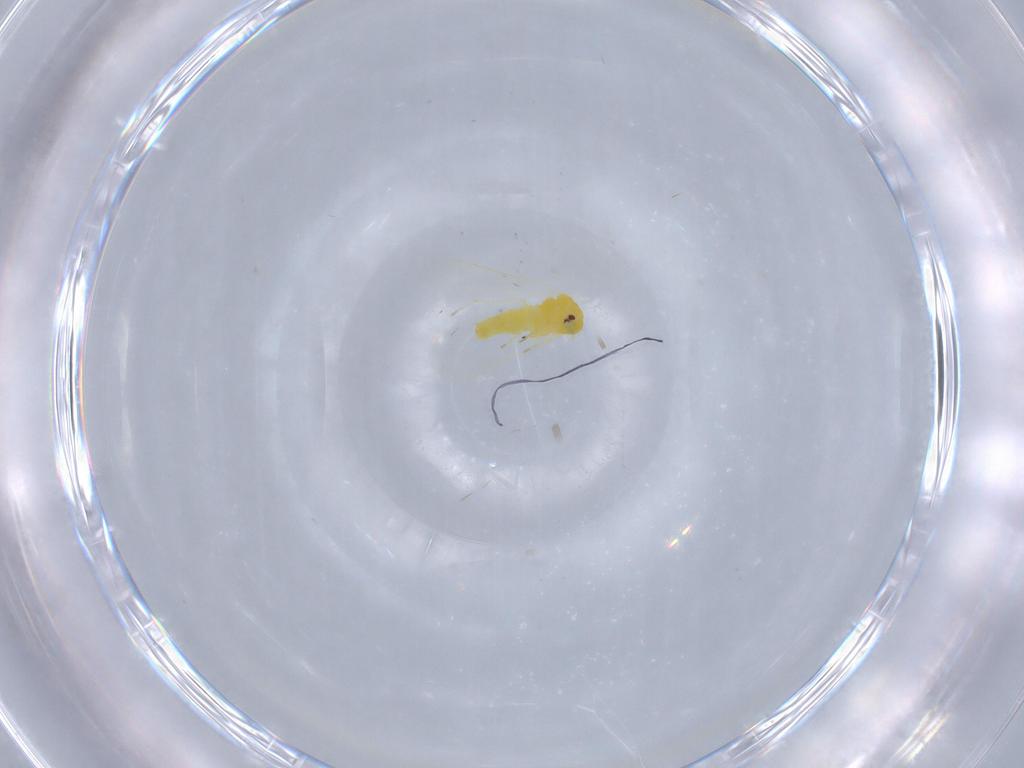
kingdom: Animalia
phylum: Arthropoda
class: Insecta
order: Hemiptera
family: Aleyrodidae
